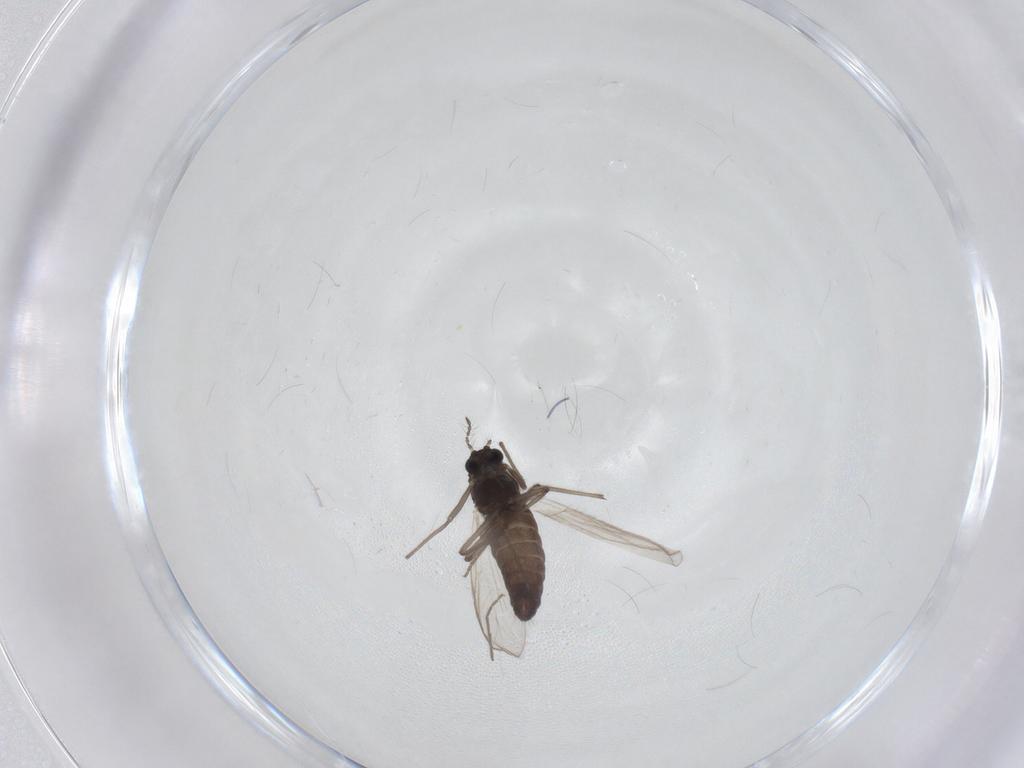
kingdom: Animalia
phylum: Arthropoda
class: Insecta
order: Diptera
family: Chironomidae
